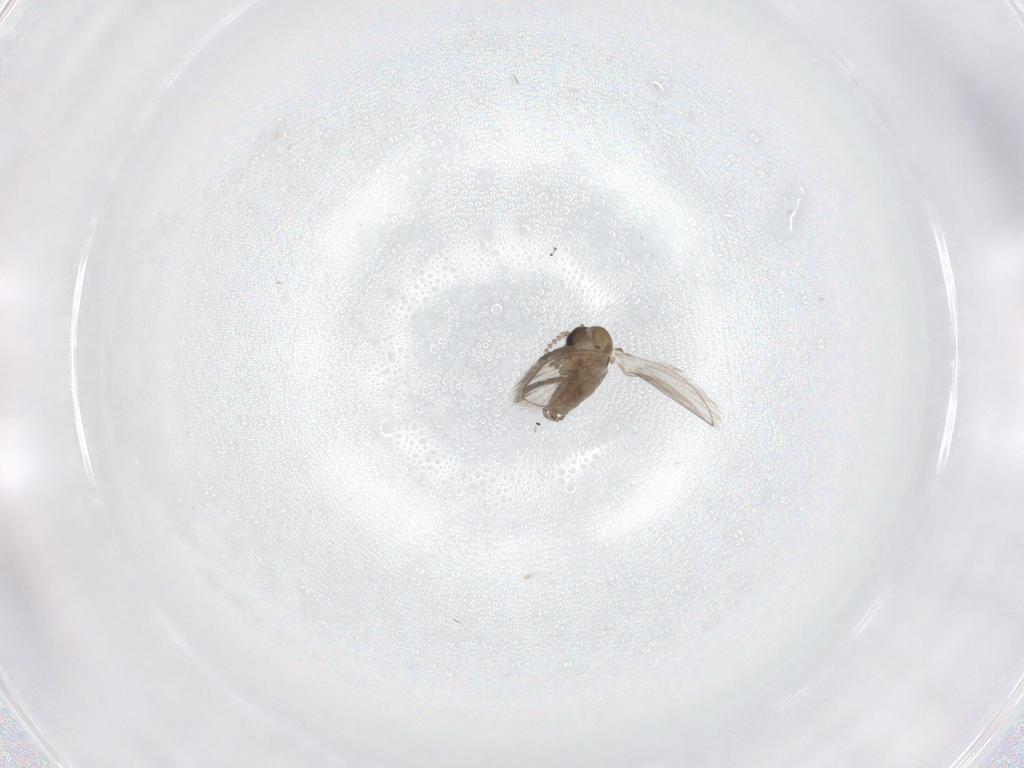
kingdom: Animalia
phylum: Arthropoda
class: Insecta
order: Diptera
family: Psychodidae
